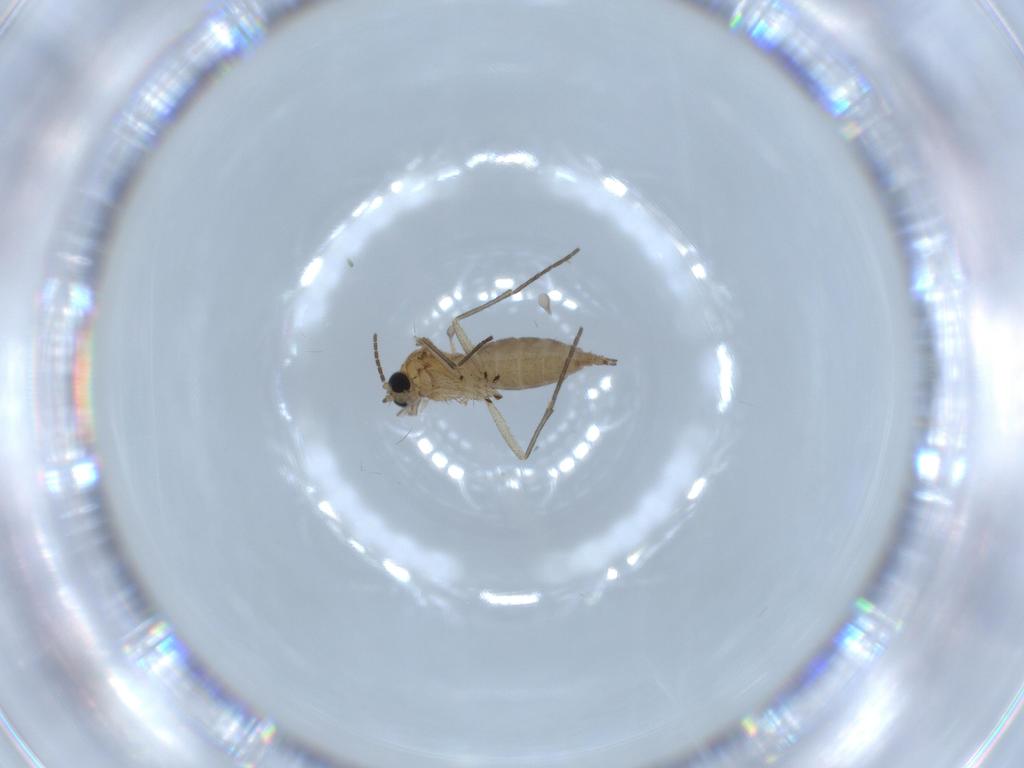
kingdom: Animalia
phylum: Arthropoda
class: Insecta
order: Diptera
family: Sciaridae
